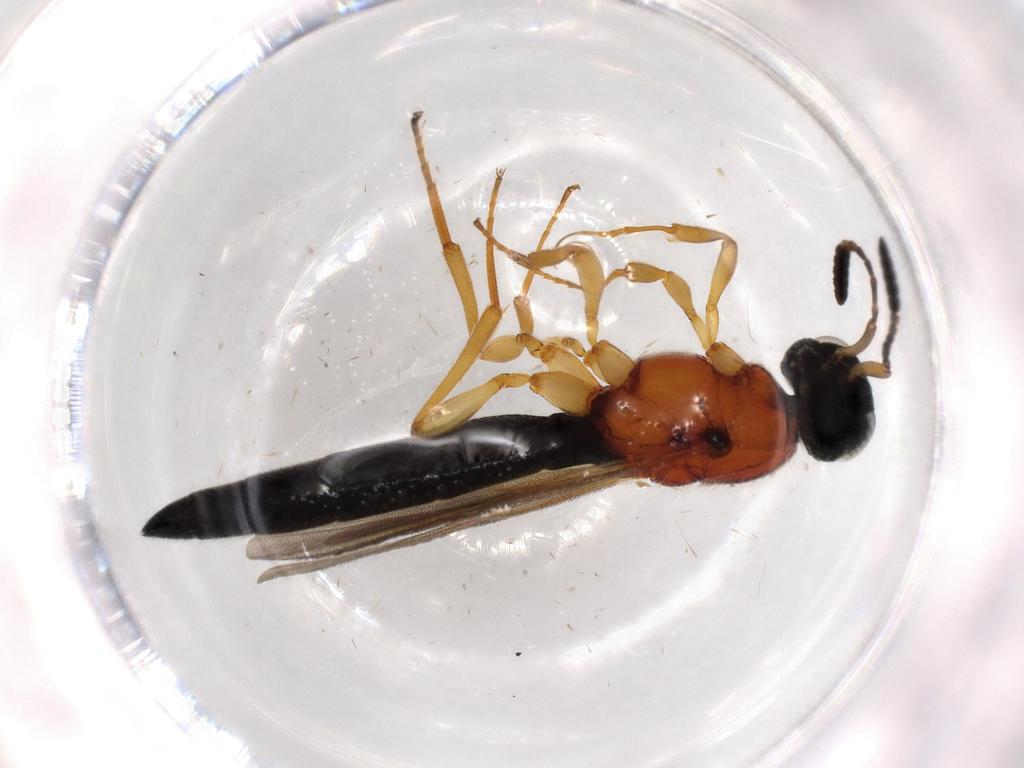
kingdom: Animalia
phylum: Arthropoda
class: Insecta
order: Hymenoptera
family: Scelionidae
